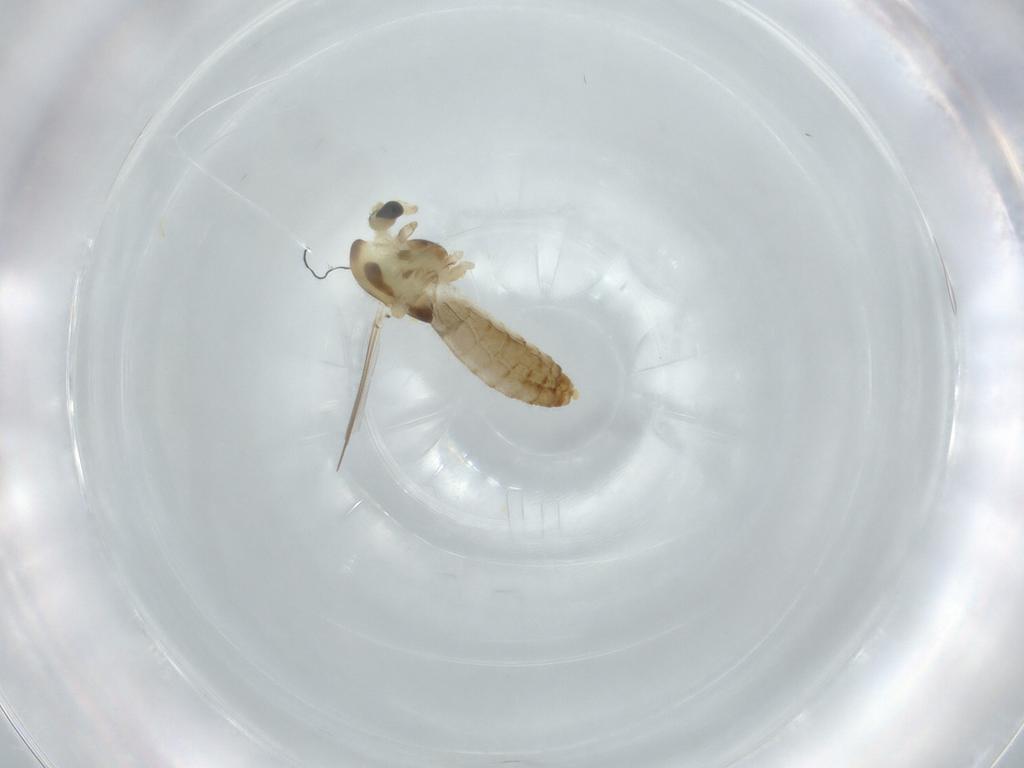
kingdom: Animalia
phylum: Arthropoda
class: Insecta
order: Diptera
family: Chironomidae
